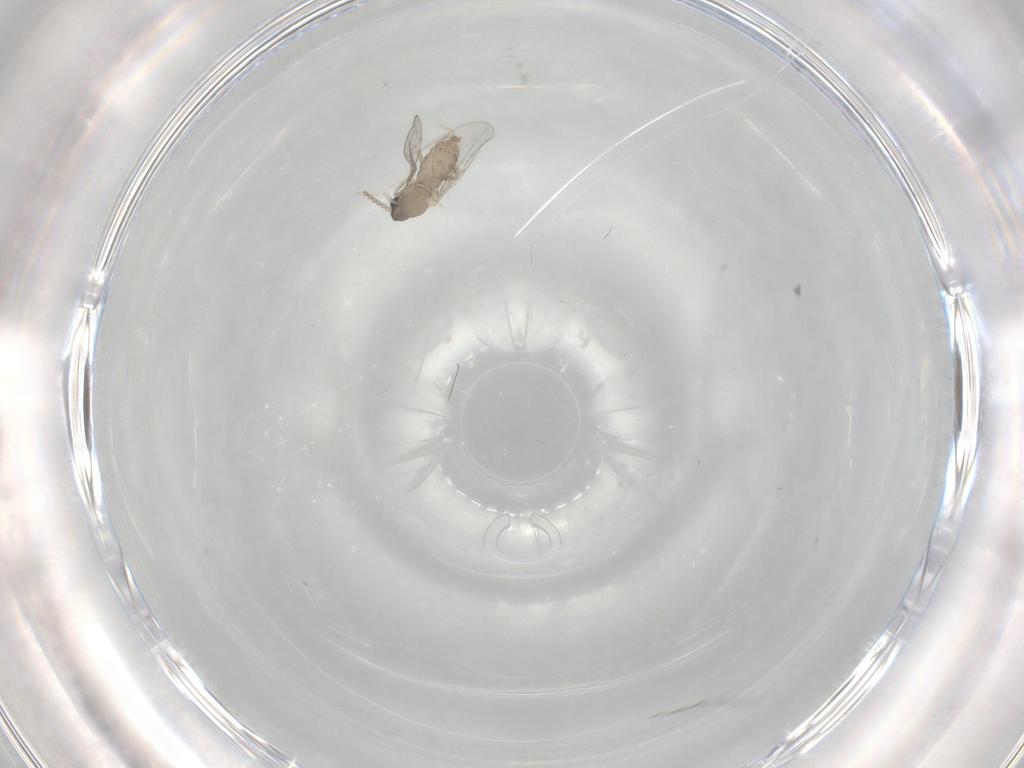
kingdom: Animalia
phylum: Arthropoda
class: Insecta
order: Diptera
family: Cecidomyiidae
